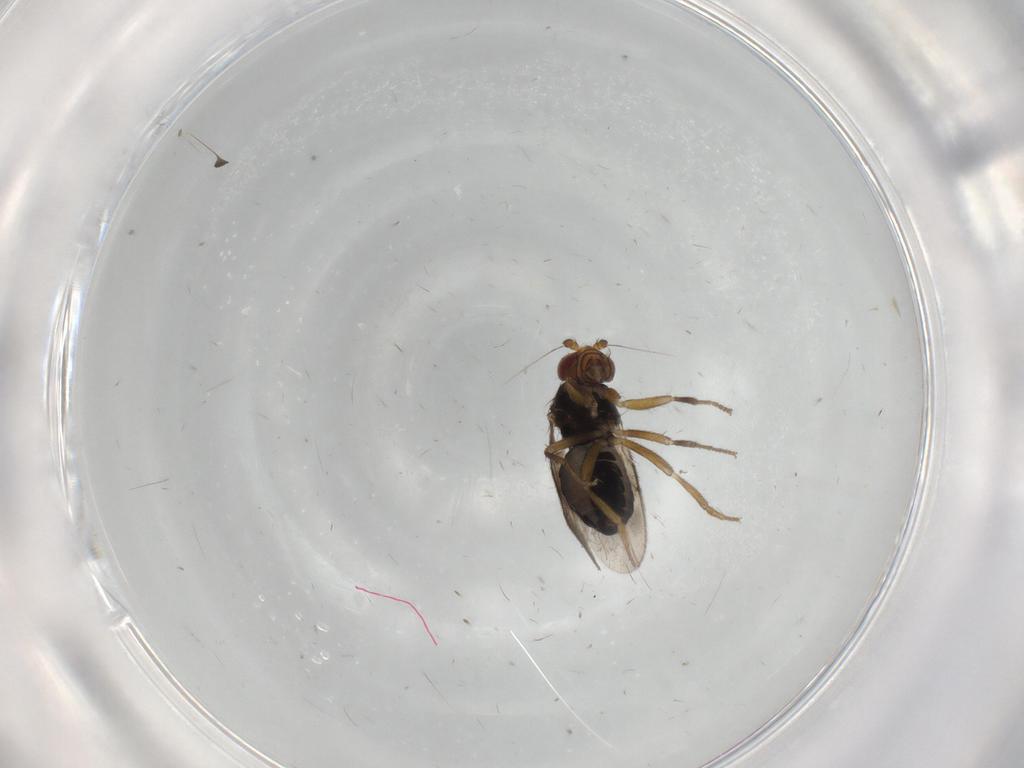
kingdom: Animalia
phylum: Arthropoda
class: Insecta
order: Diptera
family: Sphaeroceridae
